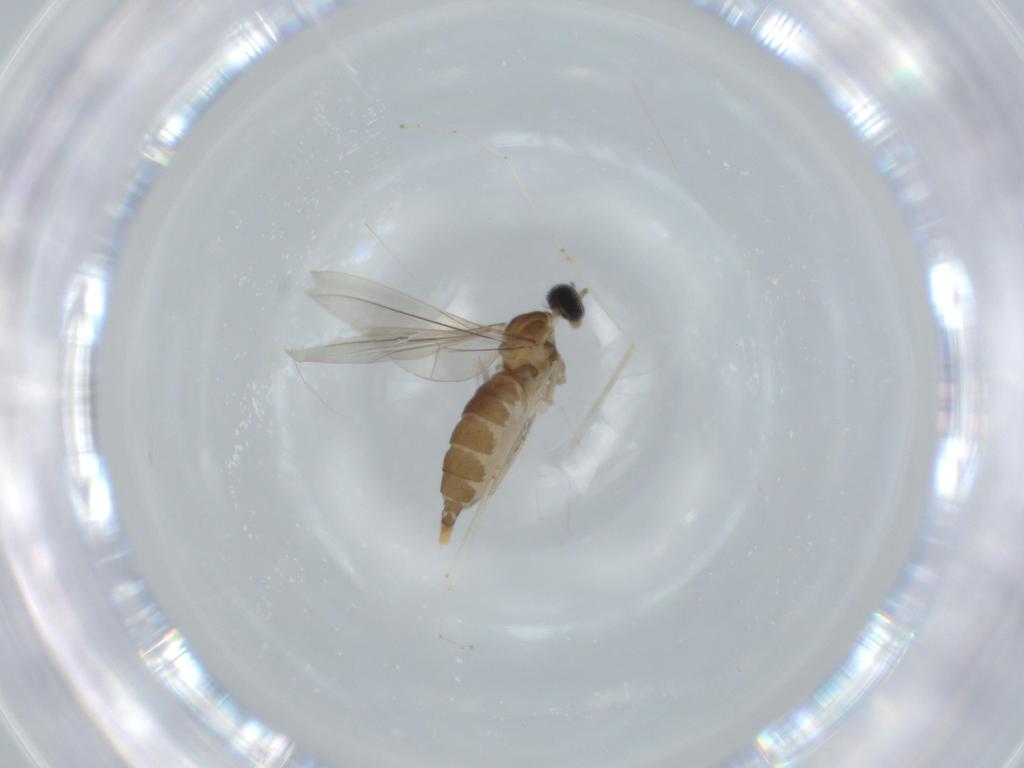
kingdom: Animalia
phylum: Arthropoda
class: Insecta
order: Diptera
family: Cecidomyiidae
